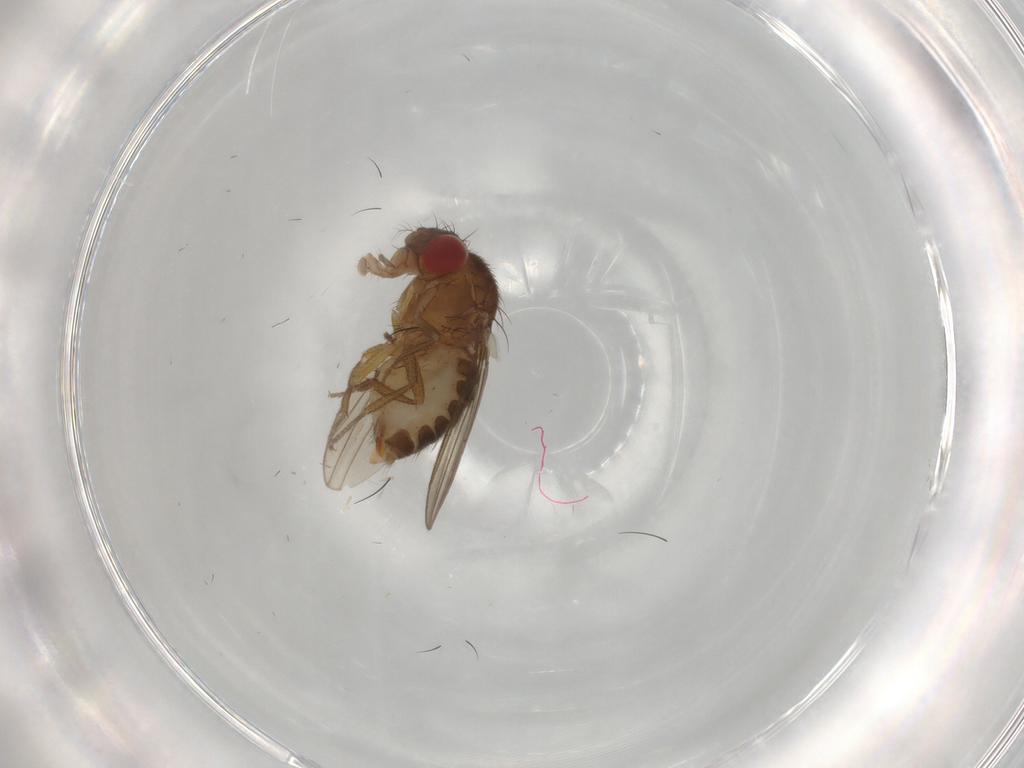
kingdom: Animalia
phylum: Arthropoda
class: Insecta
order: Diptera
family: Drosophilidae
